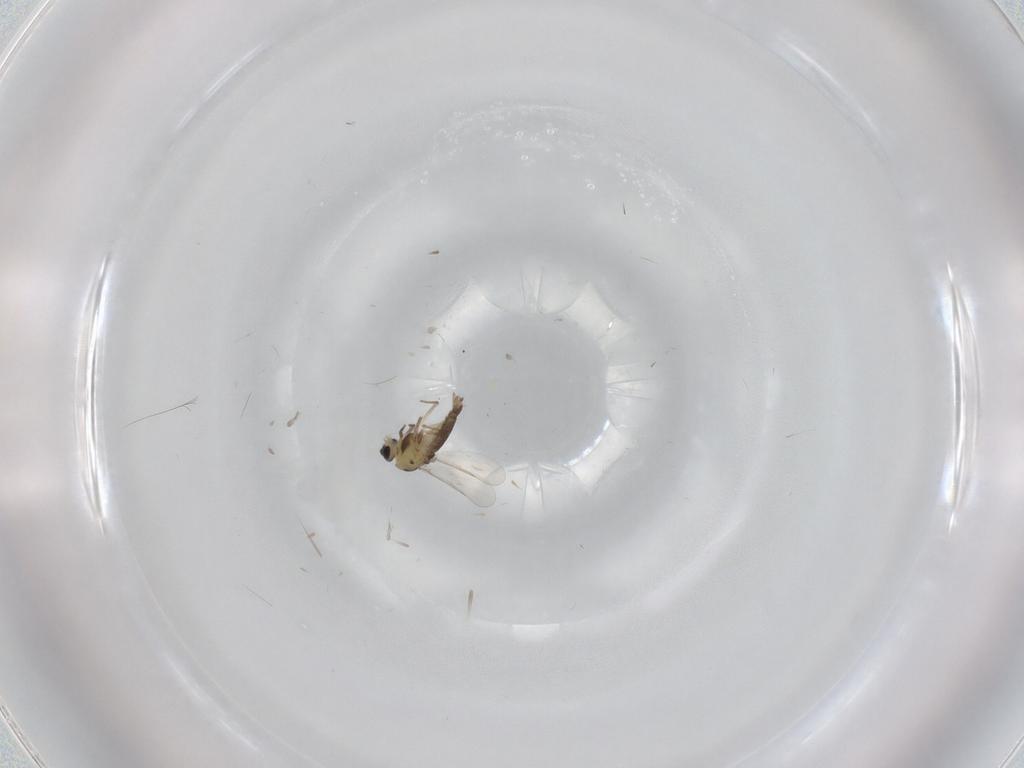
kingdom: Animalia
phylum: Arthropoda
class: Insecta
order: Diptera
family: Chironomidae
